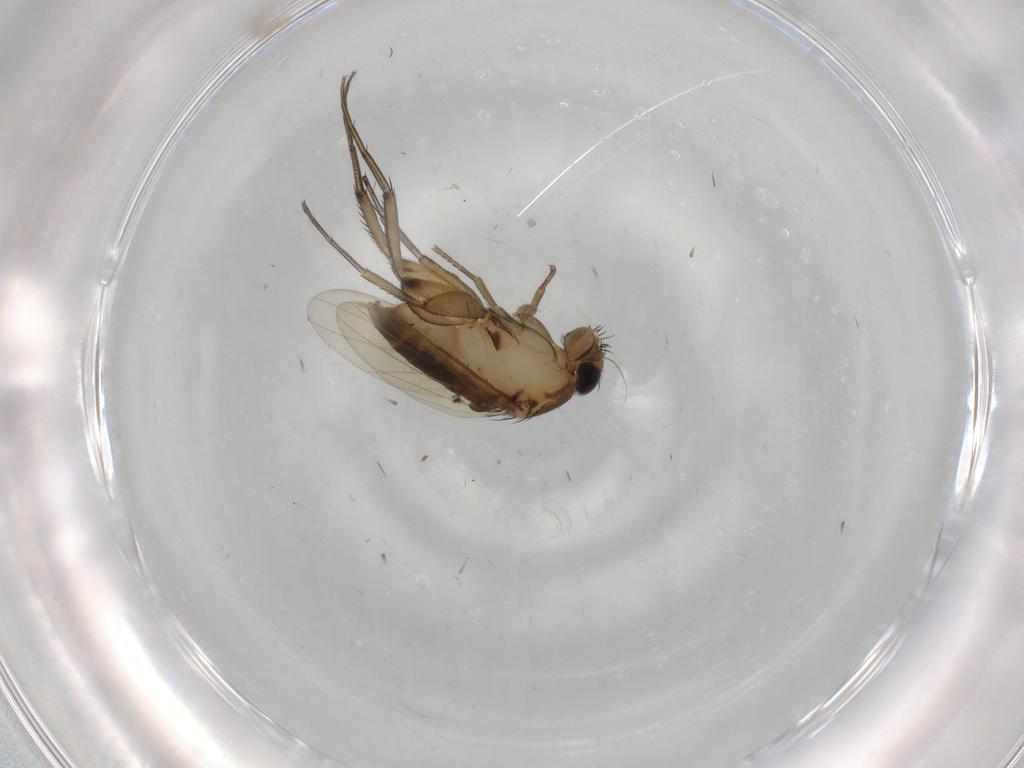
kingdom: Animalia
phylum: Arthropoda
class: Insecta
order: Diptera
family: Phoridae
